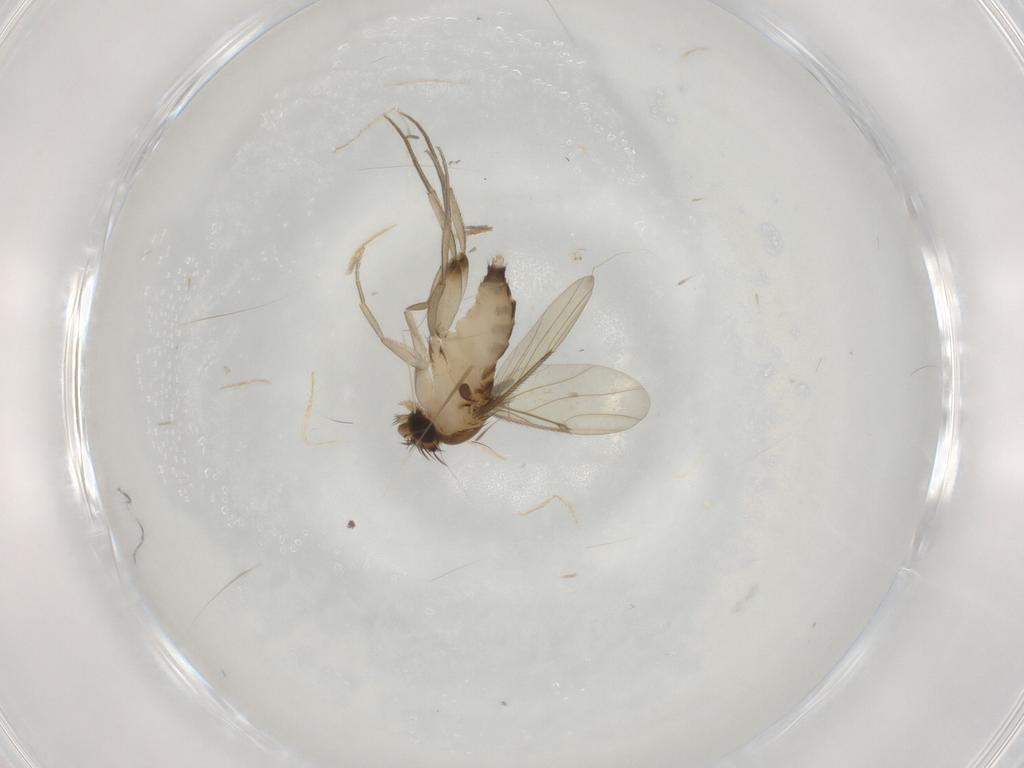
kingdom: Animalia
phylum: Arthropoda
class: Insecta
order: Diptera
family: Phoridae
